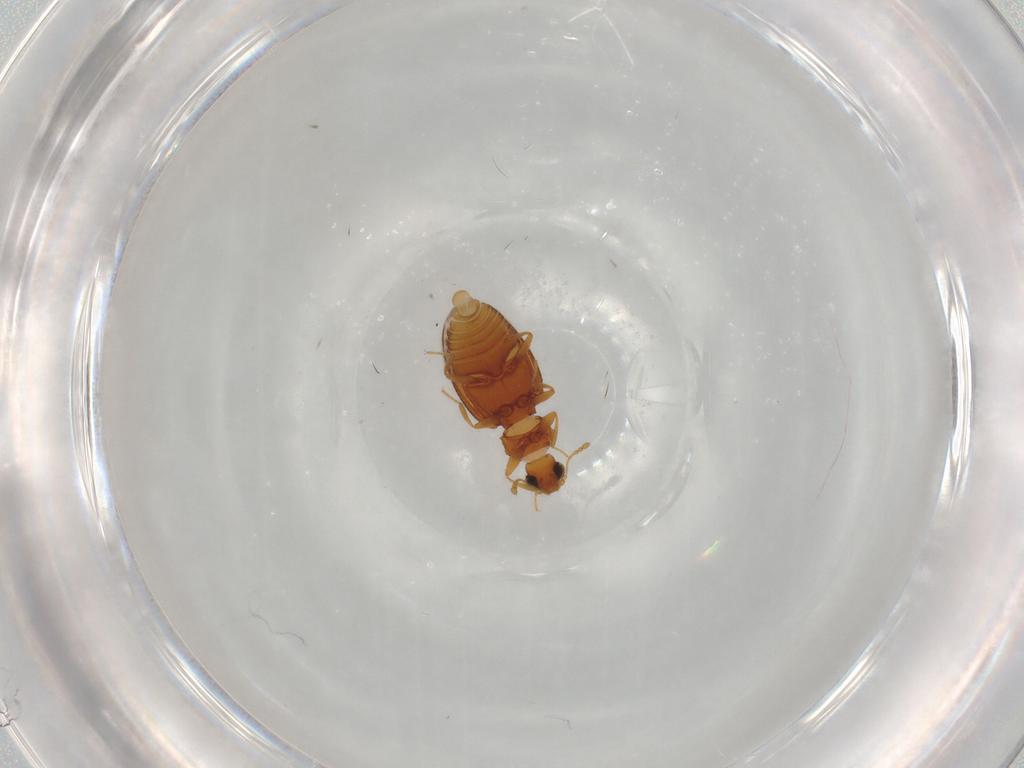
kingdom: Animalia
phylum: Arthropoda
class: Insecta
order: Coleoptera
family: Latridiidae
